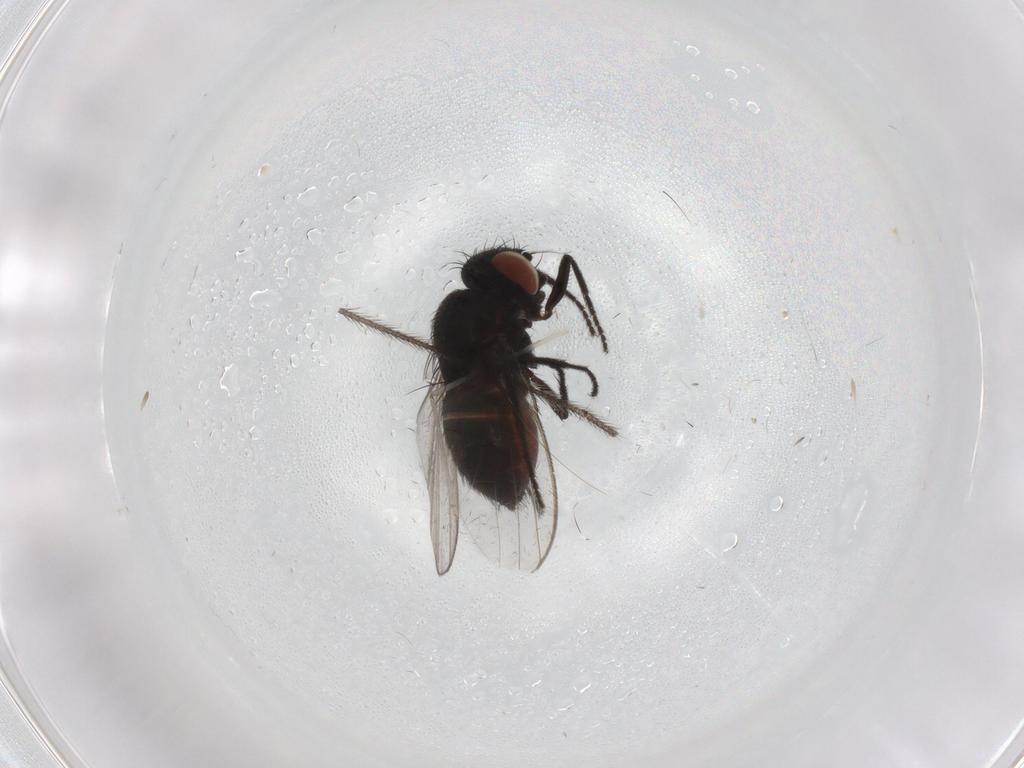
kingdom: Animalia
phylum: Arthropoda
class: Insecta
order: Diptera
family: Milichiidae
